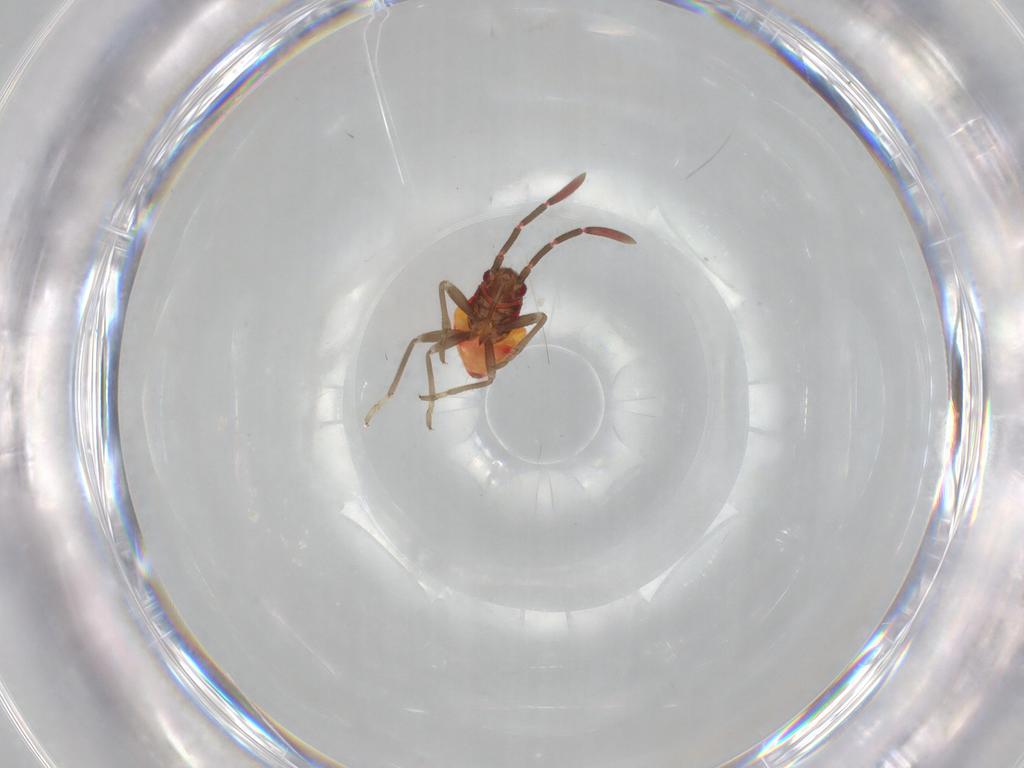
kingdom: Animalia
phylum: Arthropoda
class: Insecta
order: Hemiptera
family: Rhyparochromidae
